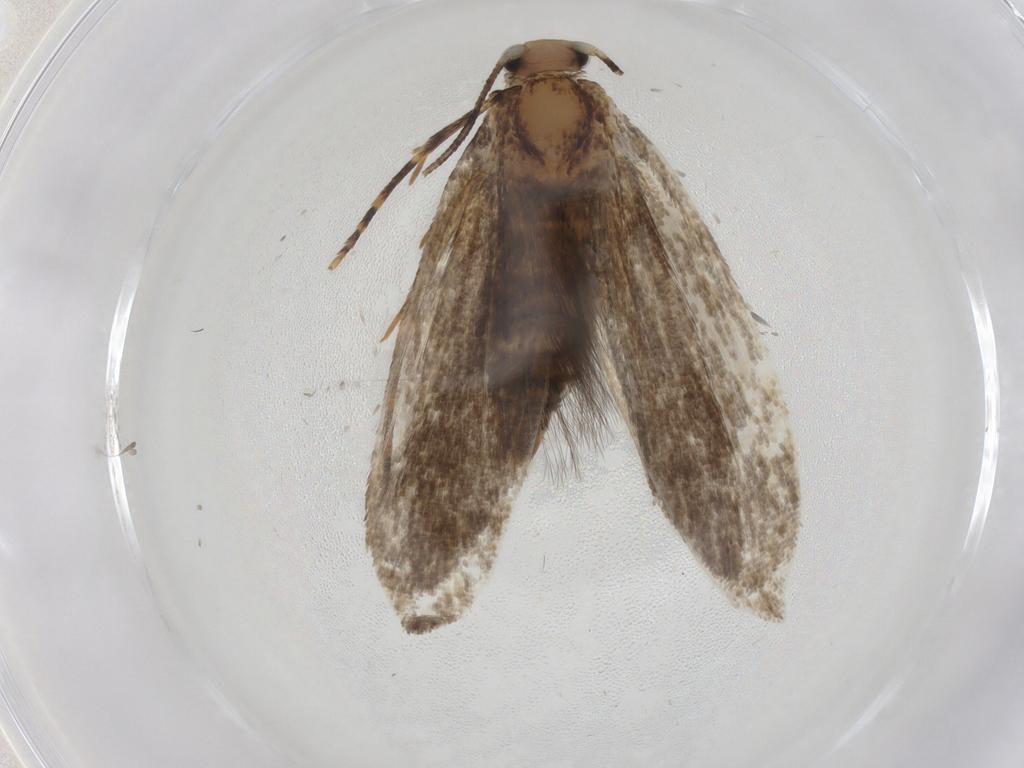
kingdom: Animalia
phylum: Arthropoda
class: Insecta
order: Lepidoptera
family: Tineidae
